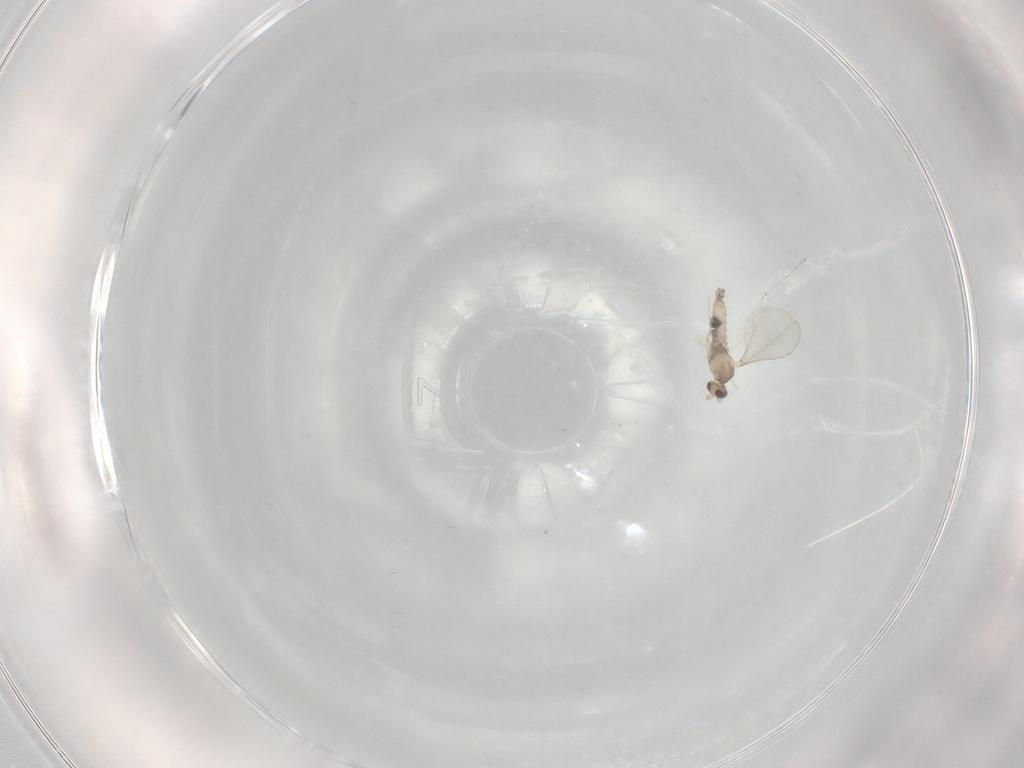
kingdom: Animalia
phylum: Arthropoda
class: Insecta
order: Diptera
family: Cecidomyiidae
